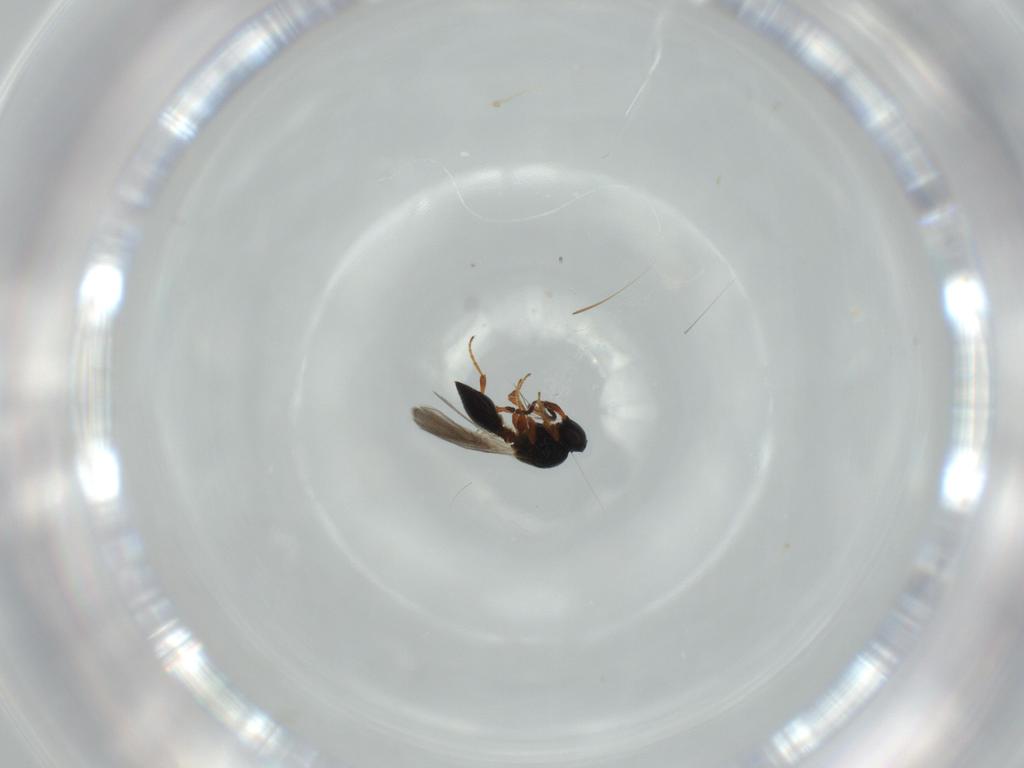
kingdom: Animalia
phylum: Arthropoda
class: Insecta
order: Hymenoptera
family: Platygastridae
